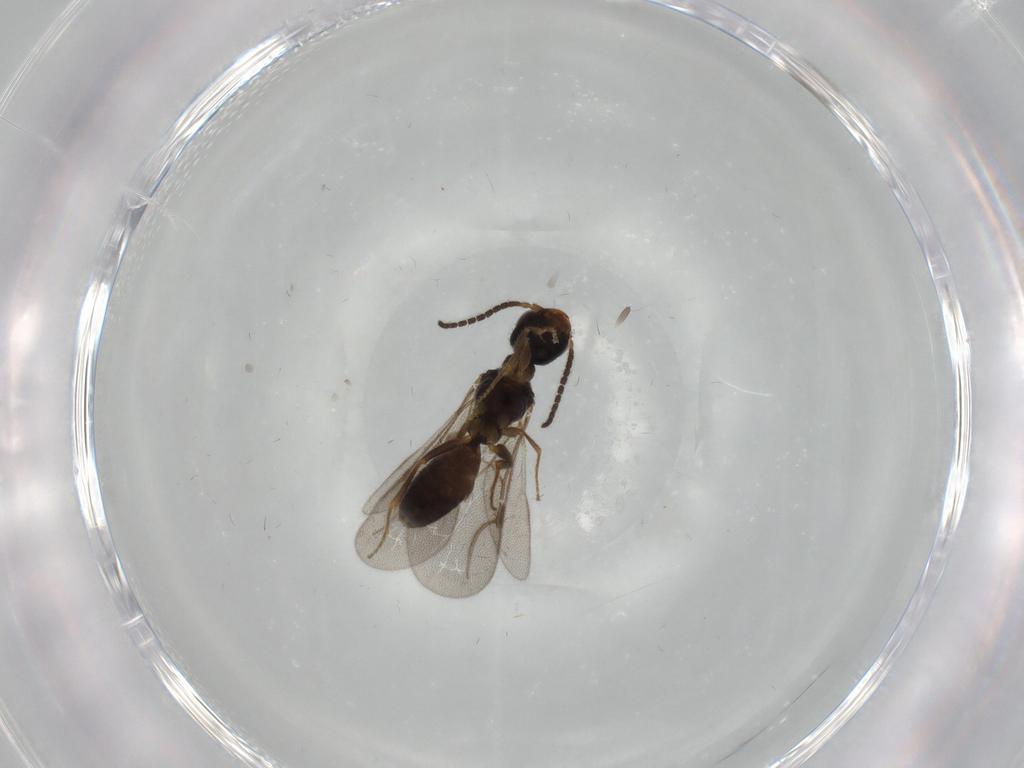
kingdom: Animalia
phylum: Arthropoda
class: Insecta
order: Hymenoptera
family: Bethylidae
